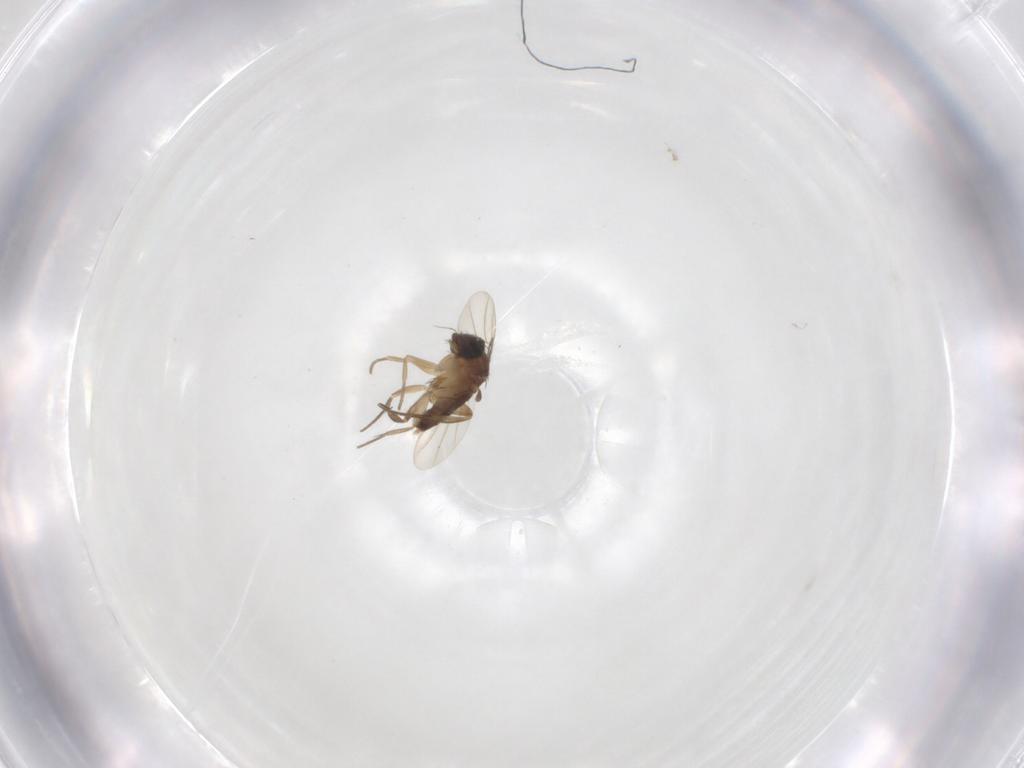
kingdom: Animalia
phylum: Arthropoda
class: Insecta
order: Diptera
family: Phoridae
